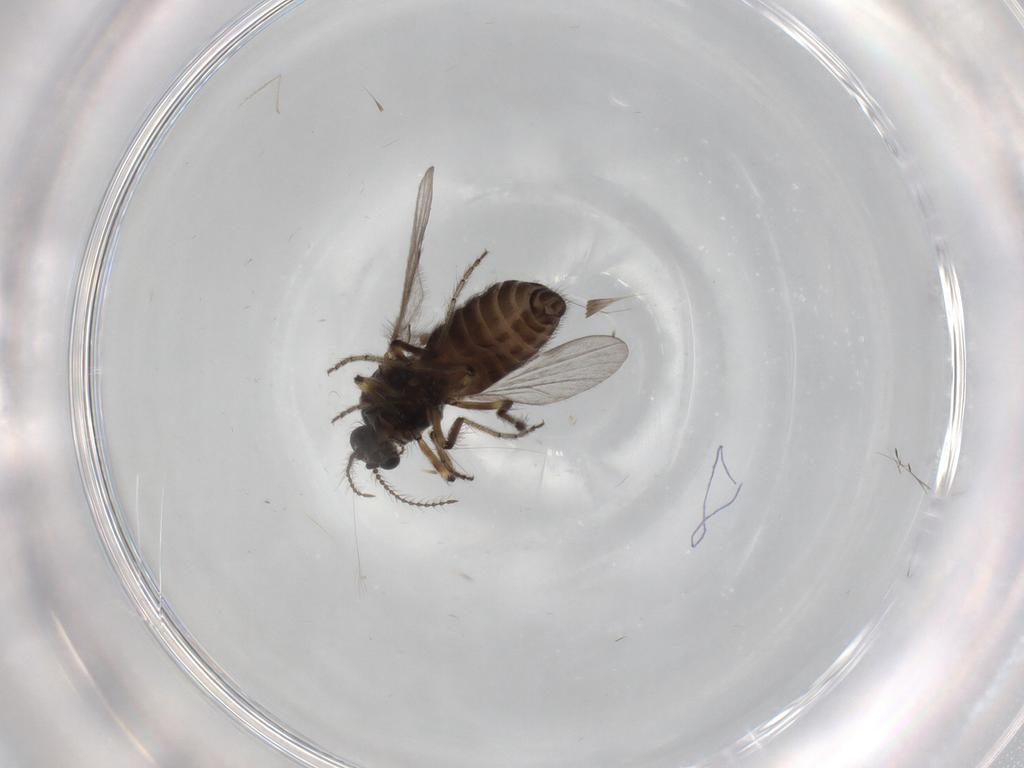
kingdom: Animalia
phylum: Arthropoda
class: Insecta
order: Diptera
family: Ceratopogonidae
